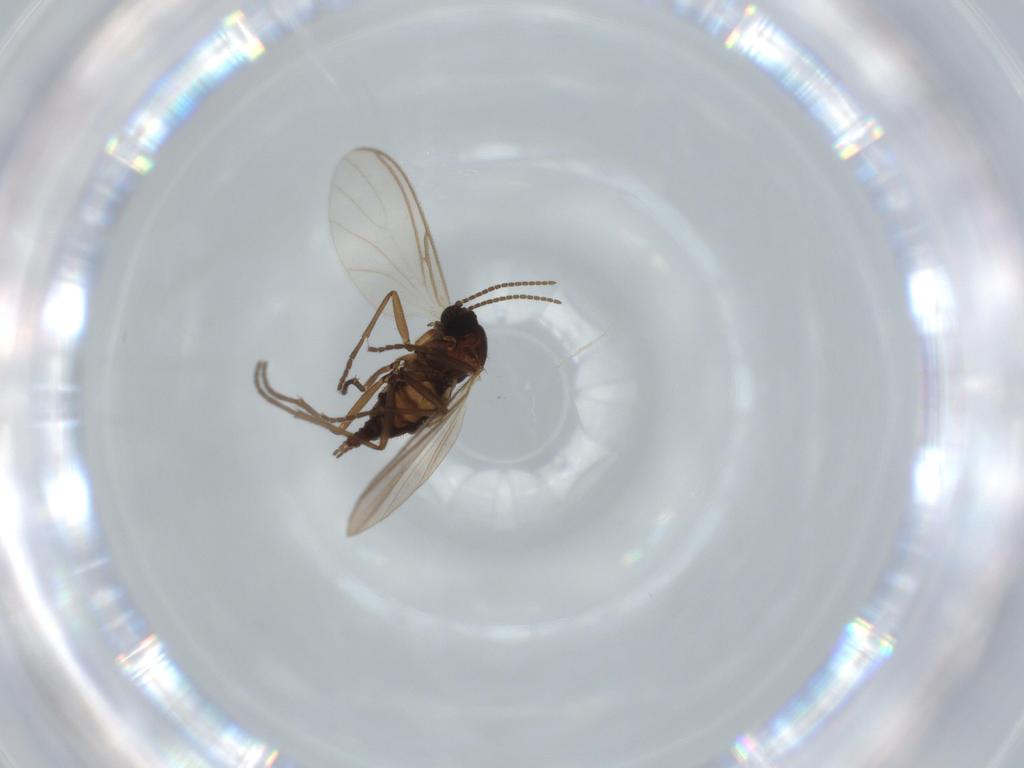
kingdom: Animalia
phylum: Arthropoda
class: Insecta
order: Diptera
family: Sciaridae
